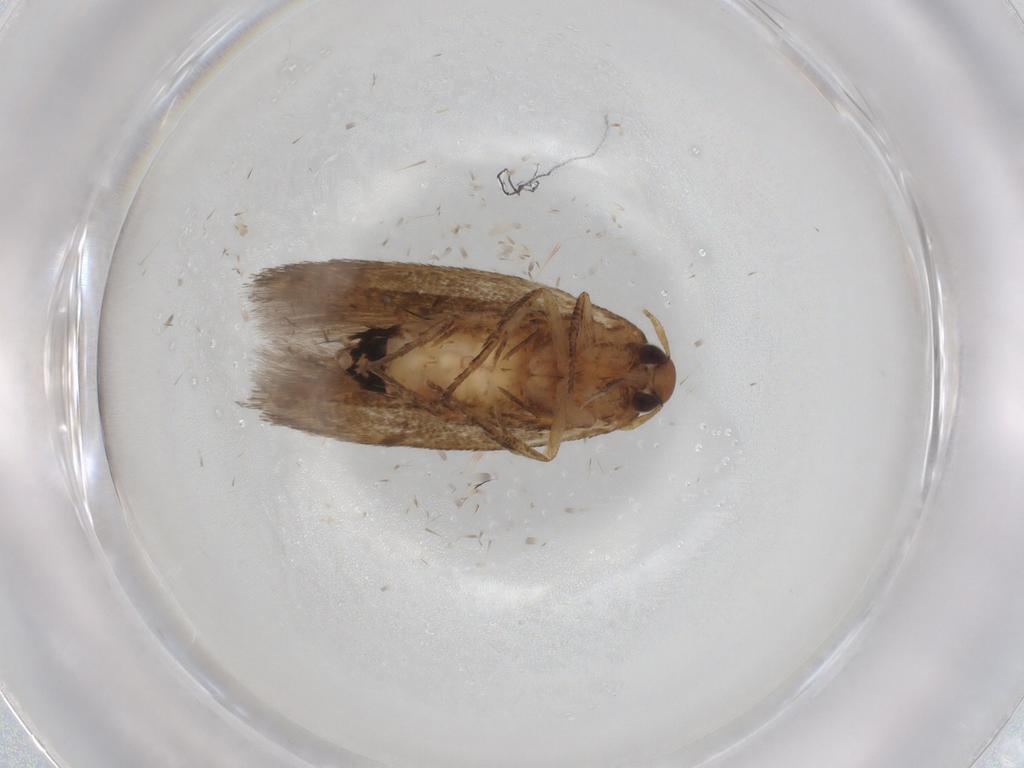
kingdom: Animalia
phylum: Arthropoda
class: Insecta
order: Lepidoptera
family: Cosmopterigidae
